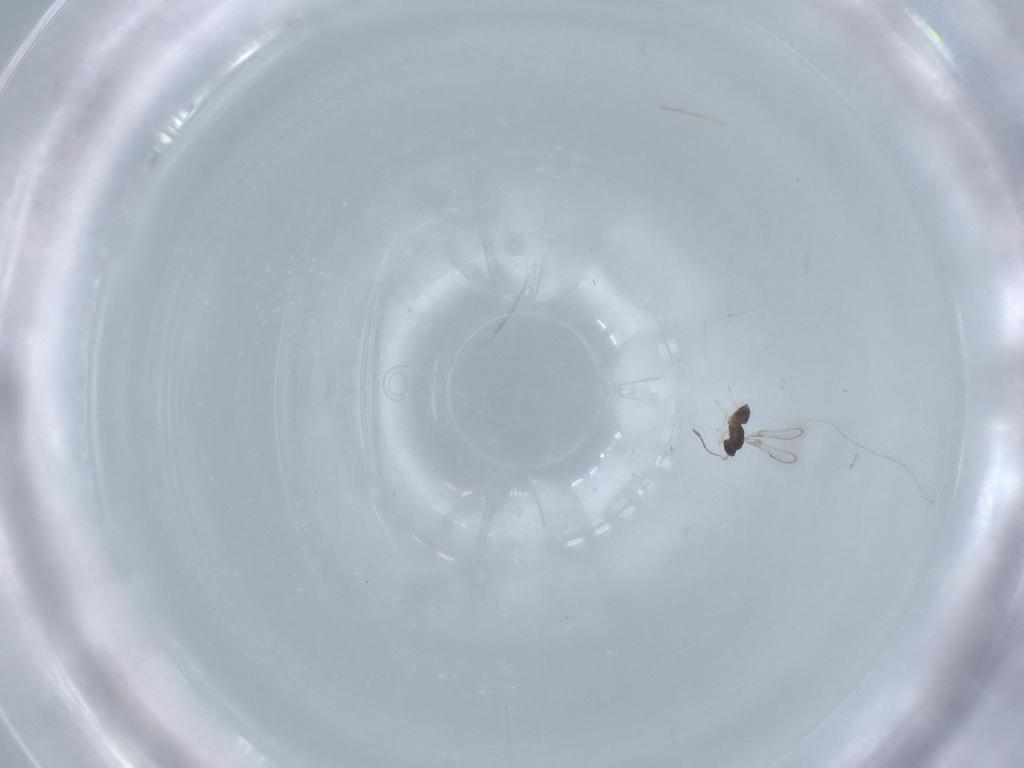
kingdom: Animalia
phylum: Arthropoda
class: Insecta
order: Hymenoptera
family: Aphelinidae
